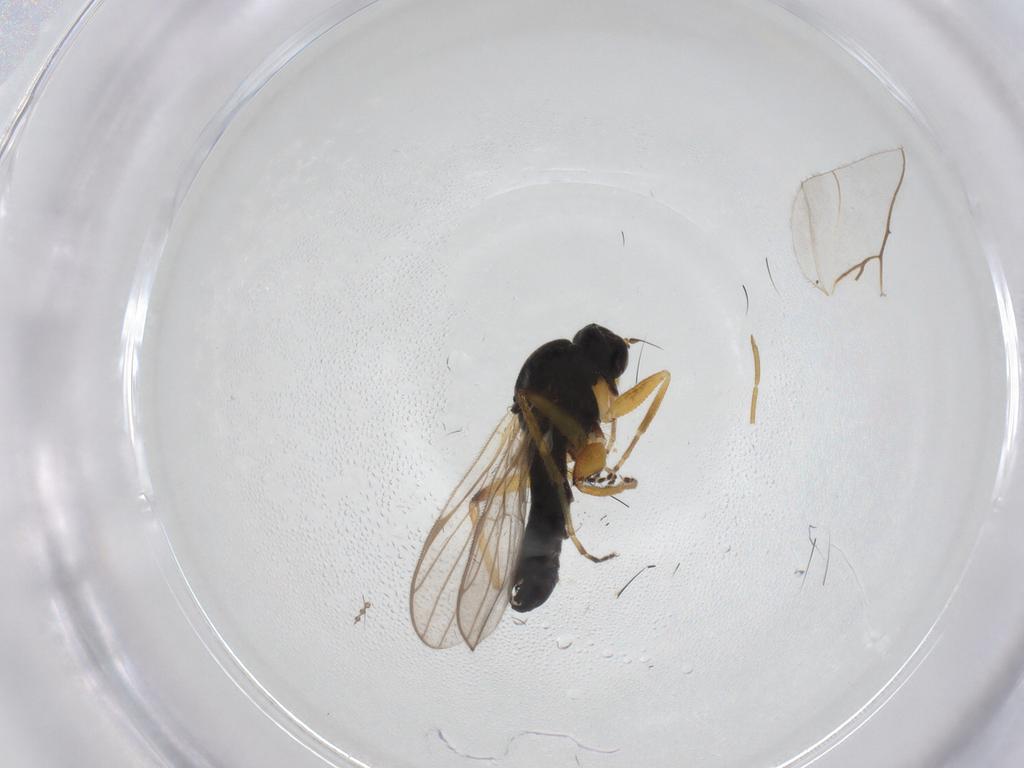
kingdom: Animalia
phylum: Arthropoda
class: Insecta
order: Diptera
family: Hybotidae
